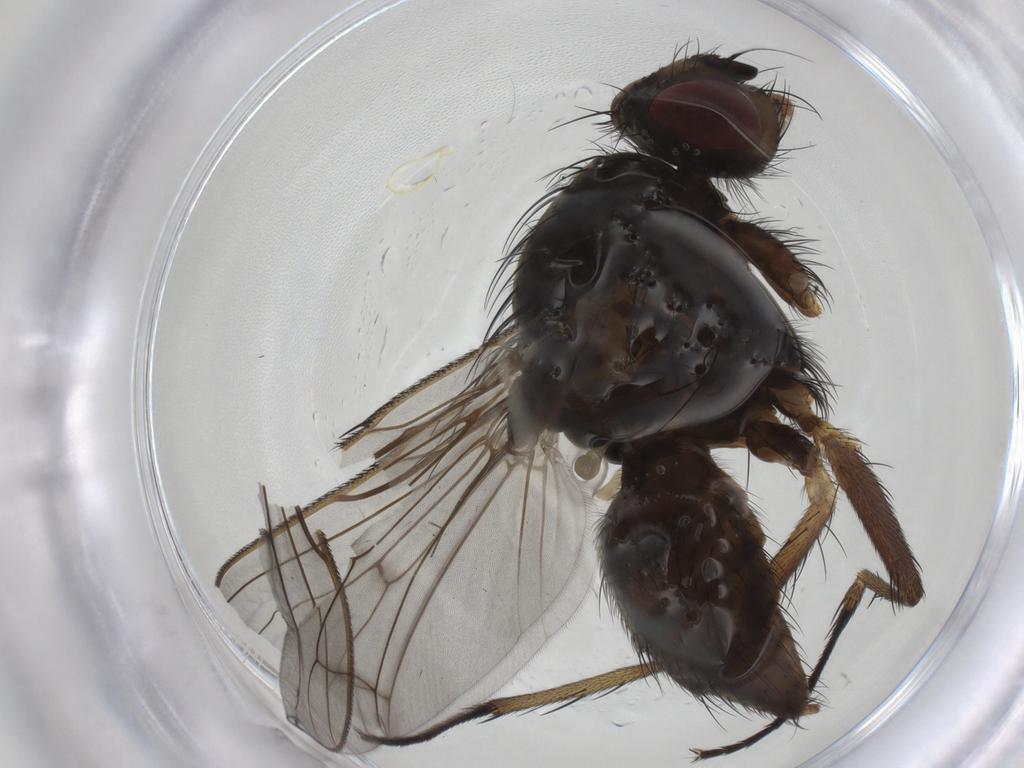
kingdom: Animalia
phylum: Arthropoda
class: Insecta
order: Diptera
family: Anthomyiidae
